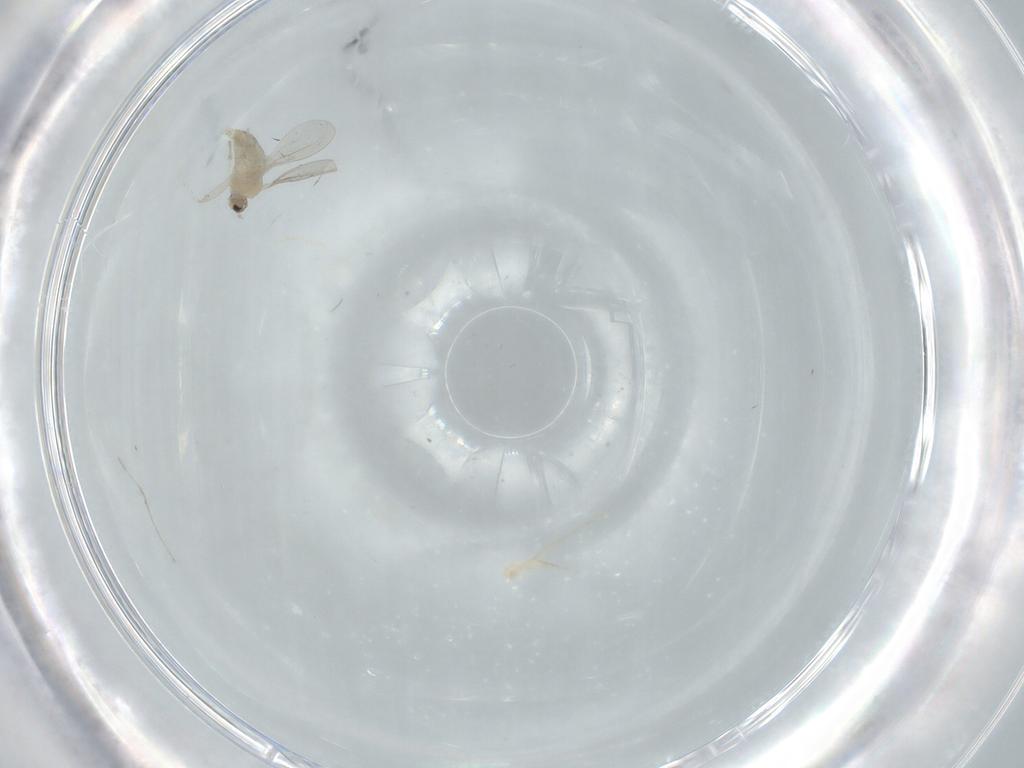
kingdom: Animalia
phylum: Arthropoda
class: Insecta
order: Diptera
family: Cecidomyiidae
